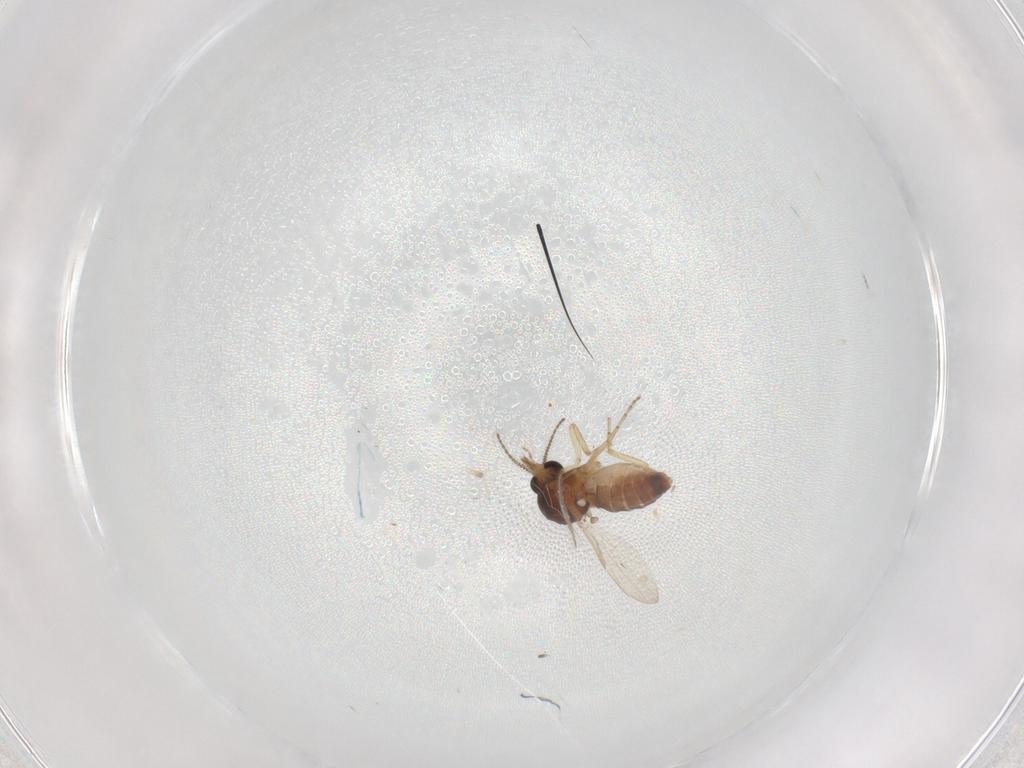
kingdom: Animalia
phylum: Arthropoda
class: Insecta
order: Diptera
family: Ceratopogonidae
